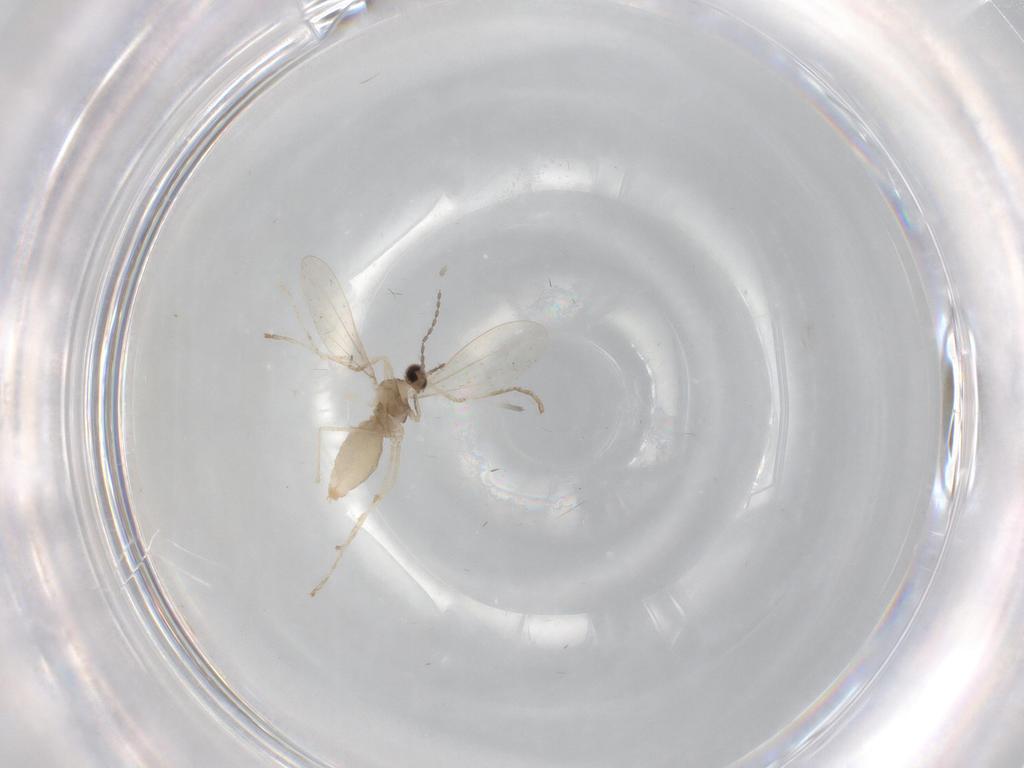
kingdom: Animalia
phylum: Arthropoda
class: Insecta
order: Diptera
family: Cecidomyiidae
